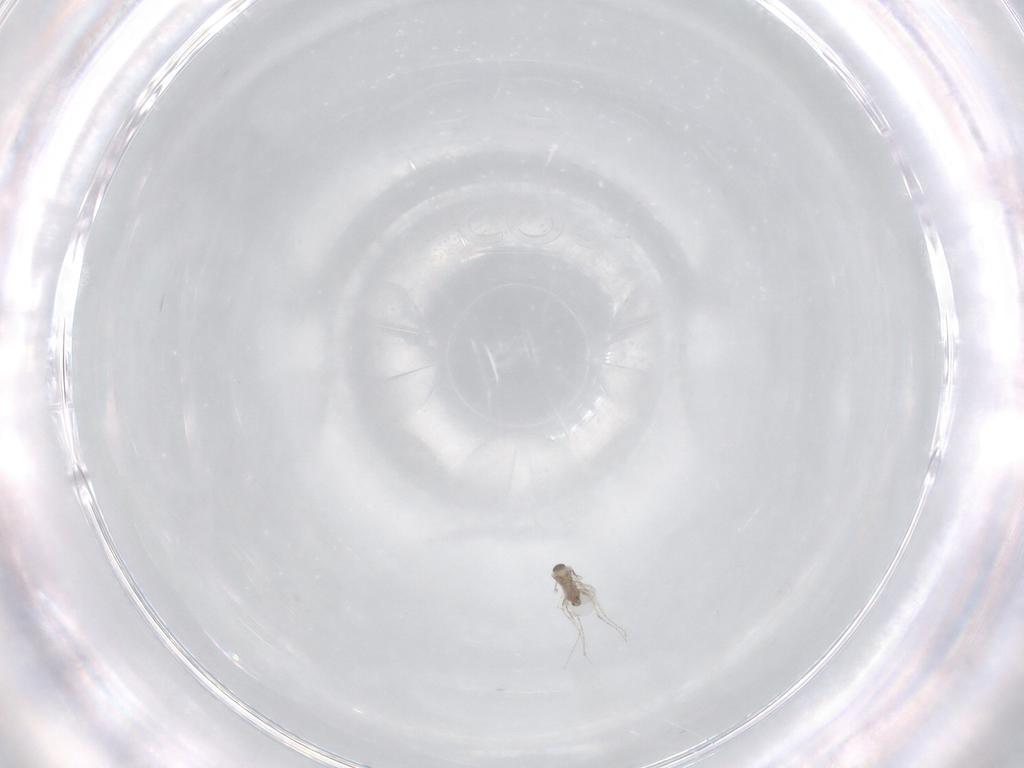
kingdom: Animalia
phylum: Arthropoda
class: Insecta
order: Diptera
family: Cecidomyiidae
